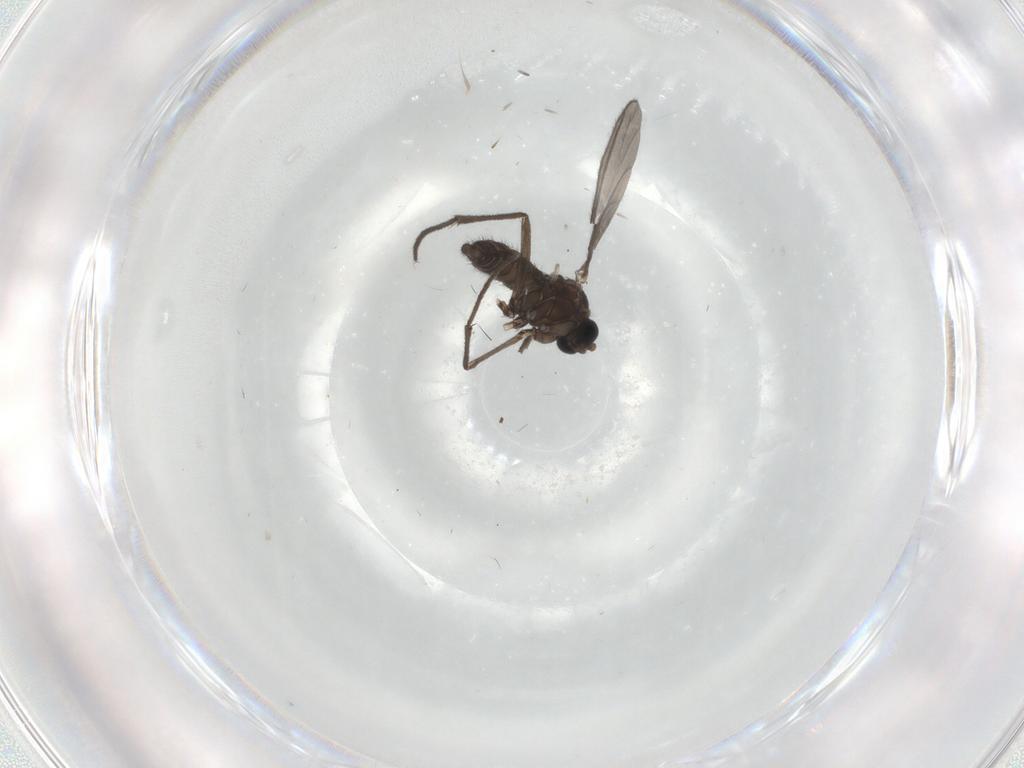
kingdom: Animalia
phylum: Arthropoda
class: Insecta
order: Diptera
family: Sciaridae
